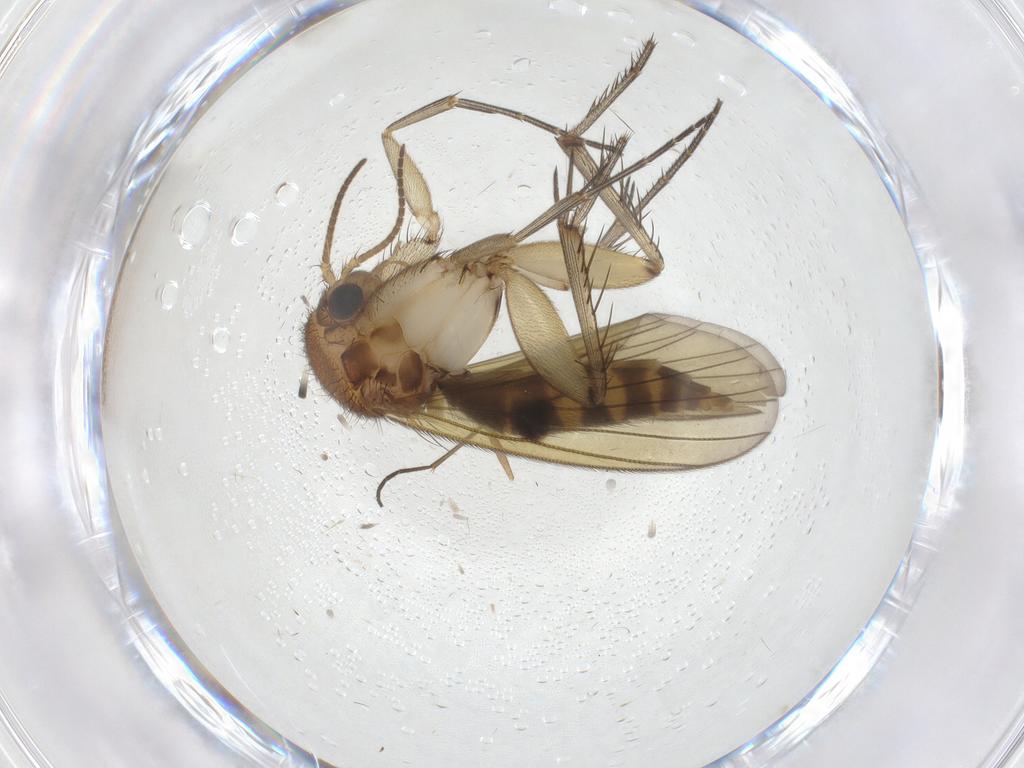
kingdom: Animalia
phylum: Arthropoda
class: Insecta
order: Diptera
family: Mycetophilidae
